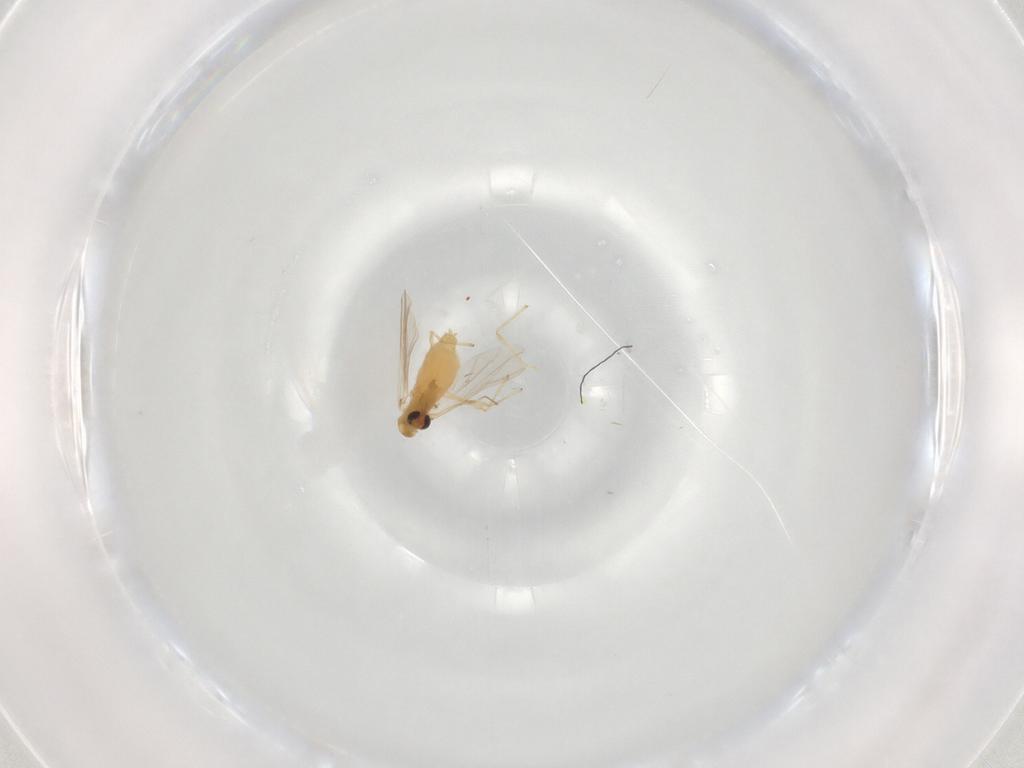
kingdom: Animalia
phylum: Arthropoda
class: Insecta
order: Diptera
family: Chironomidae
